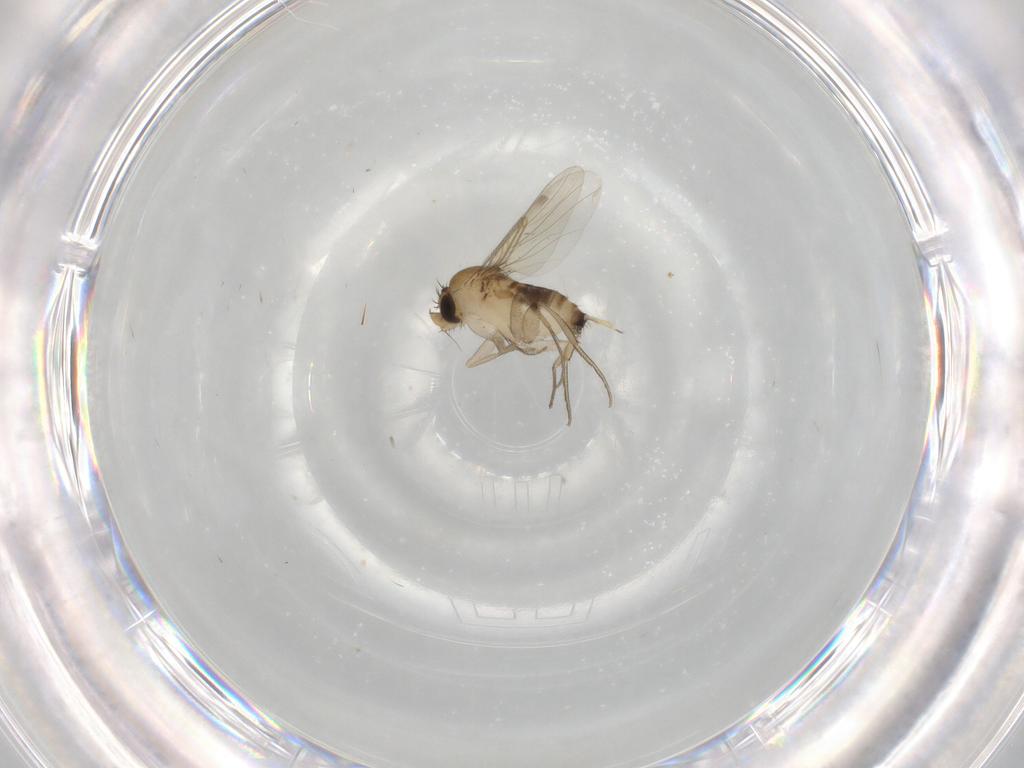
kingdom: Animalia
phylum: Arthropoda
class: Insecta
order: Diptera
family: Phoridae
